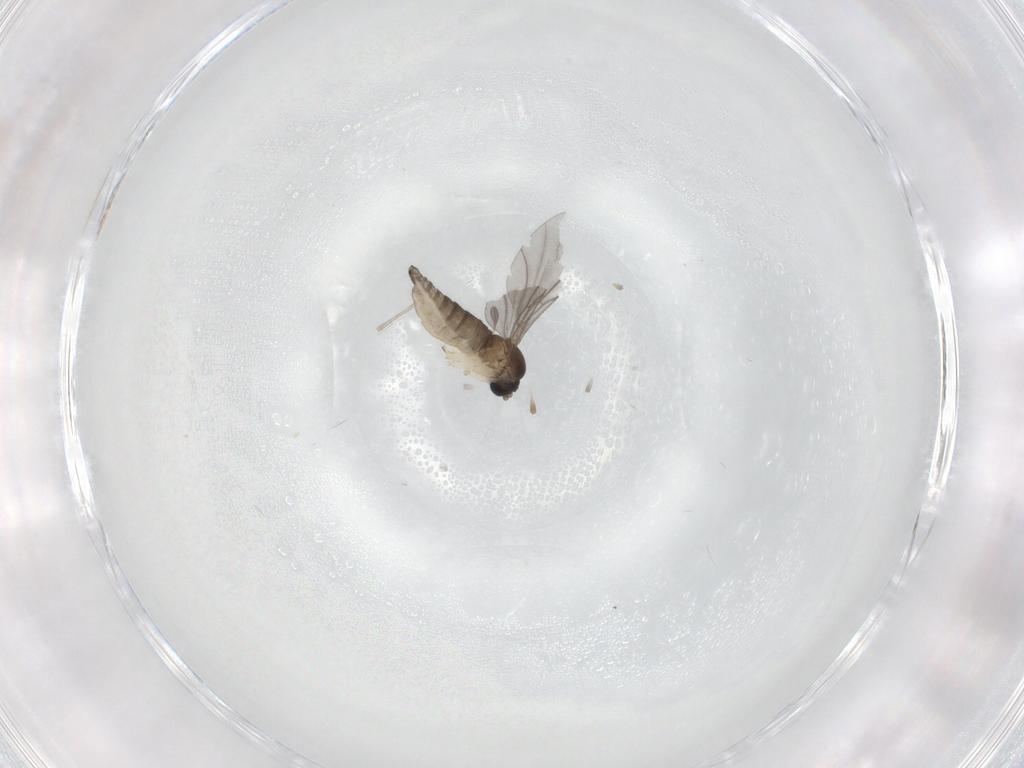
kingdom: Animalia
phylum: Arthropoda
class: Insecta
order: Diptera
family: Sciaridae
